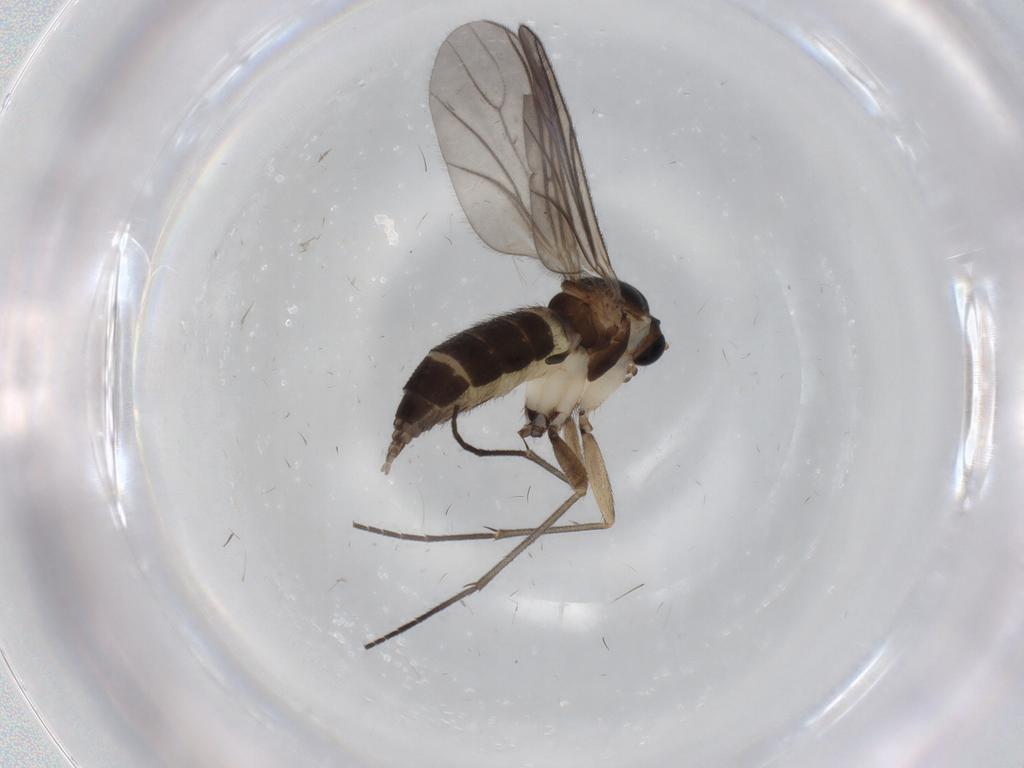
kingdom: Animalia
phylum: Arthropoda
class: Insecta
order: Diptera
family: Sciaridae
